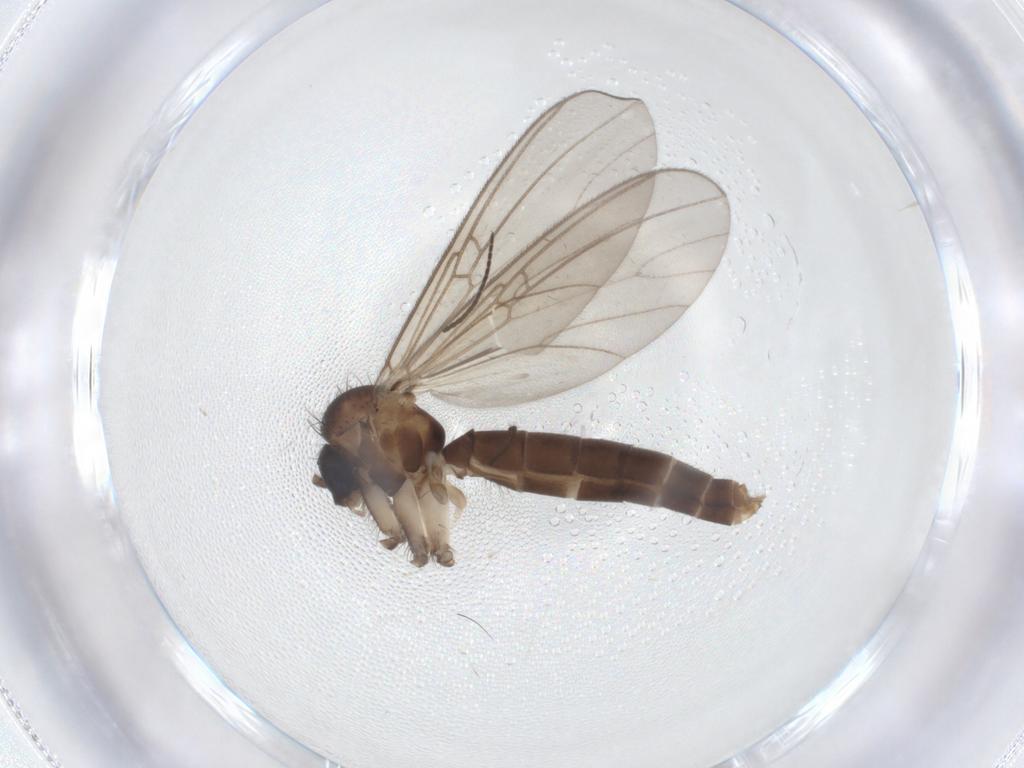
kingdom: Animalia
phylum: Arthropoda
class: Insecta
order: Diptera
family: Mycetophilidae
